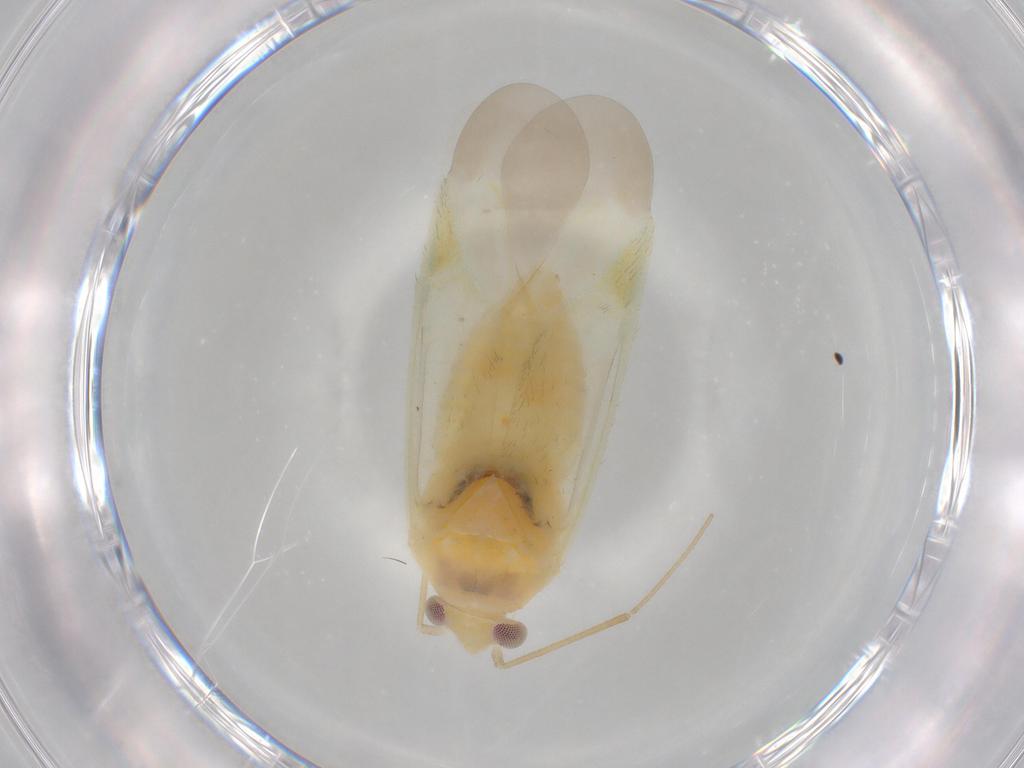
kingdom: Animalia
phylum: Arthropoda
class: Insecta
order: Hemiptera
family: Miridae
